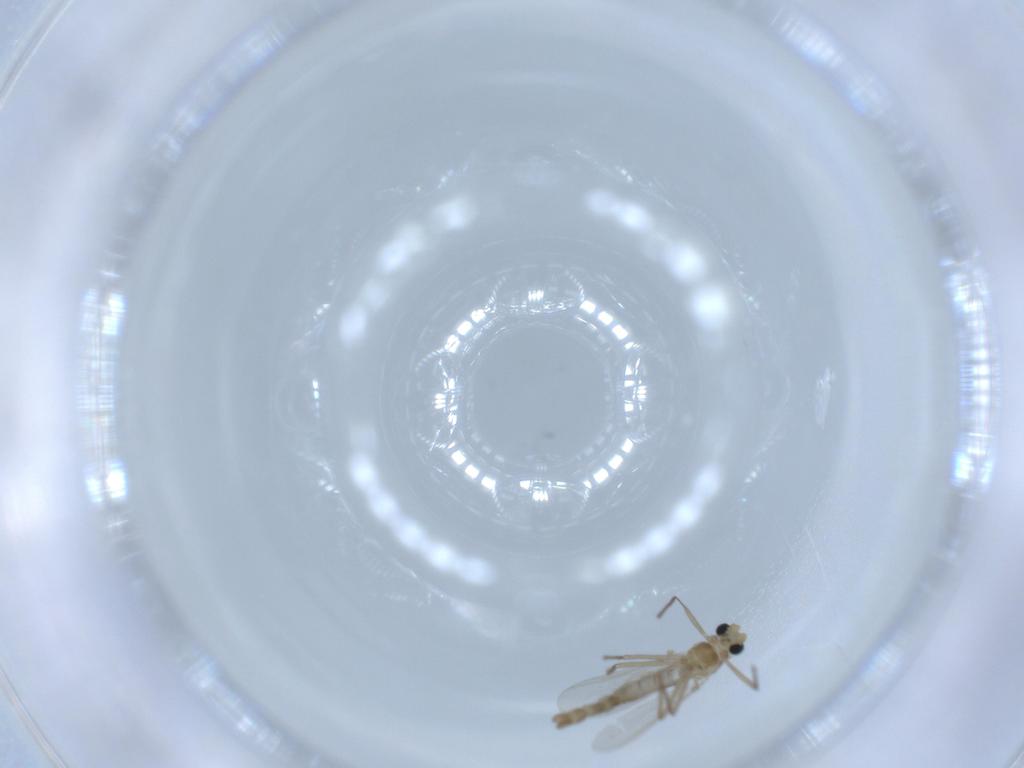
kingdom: Animalia
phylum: Arthropoda
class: Insecta
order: Diptera
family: Chironomidae
